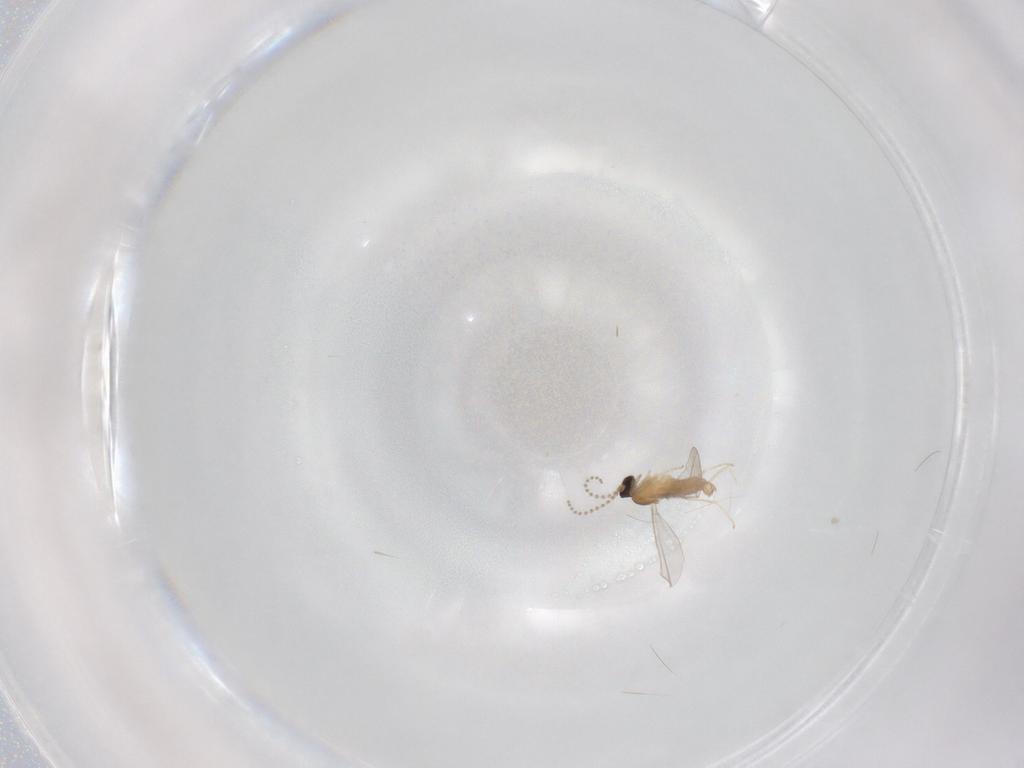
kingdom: Animalia
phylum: Arthropoda
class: Insecta
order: Diptera
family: Cecidomyiidae
